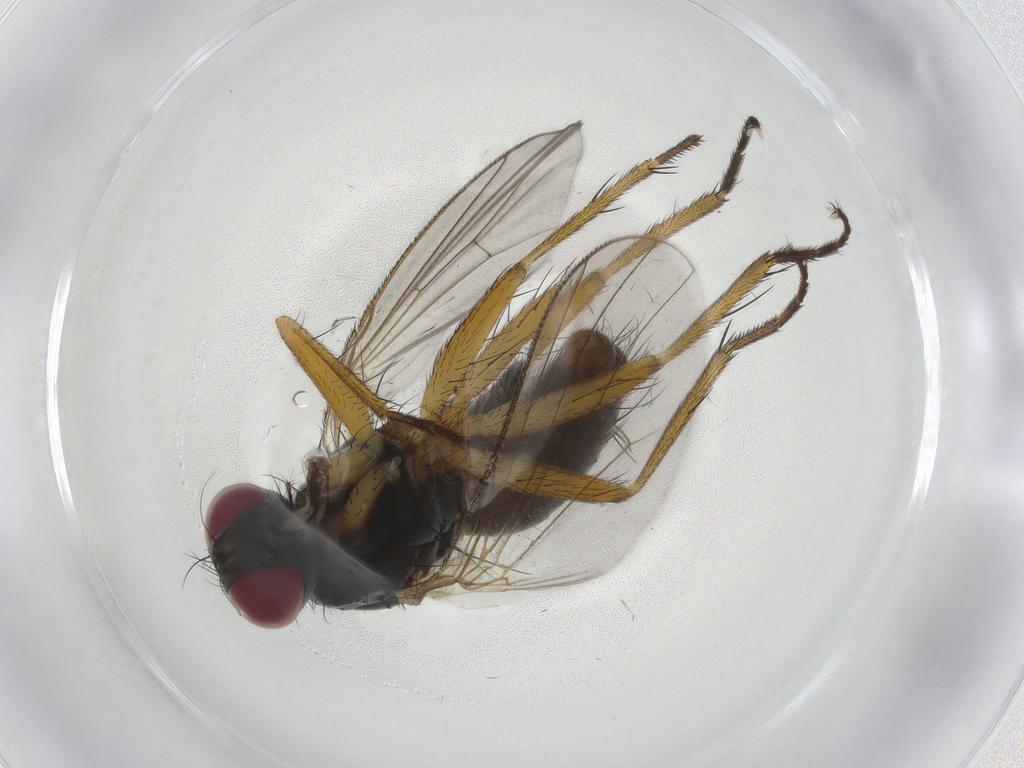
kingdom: Animalia
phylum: Arthropoda
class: Insecta
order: Diptera
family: Muscidae
